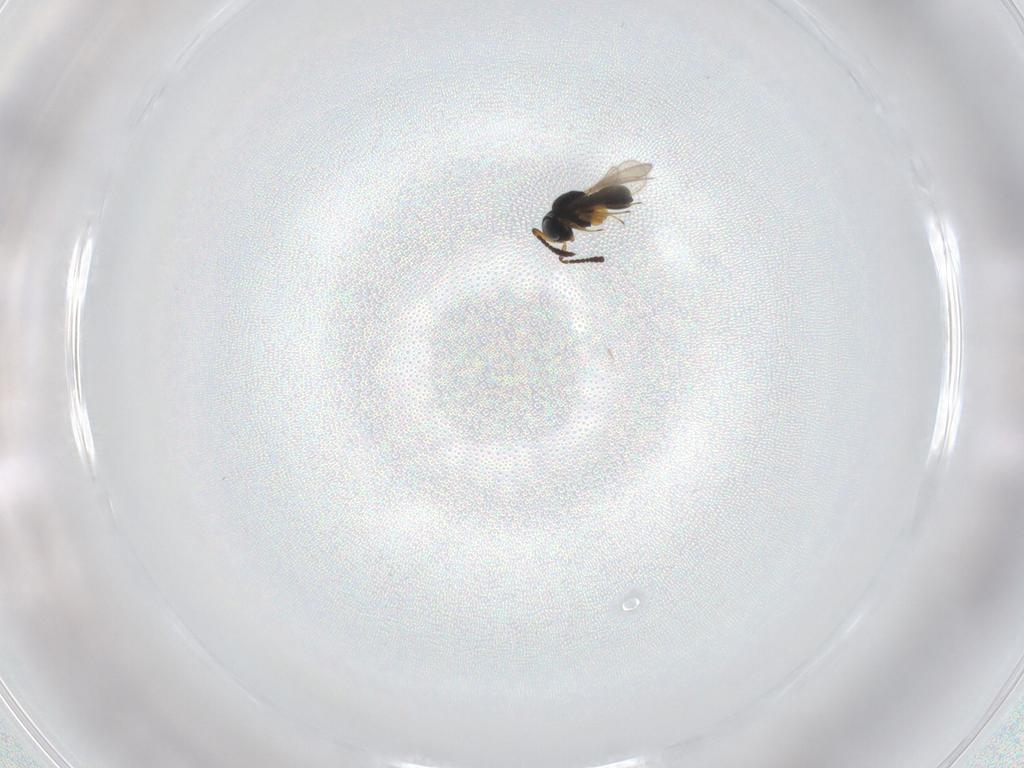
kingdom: Animalia
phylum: Arthropoda
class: Insecta
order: Hymenoptera
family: Scelionidae
